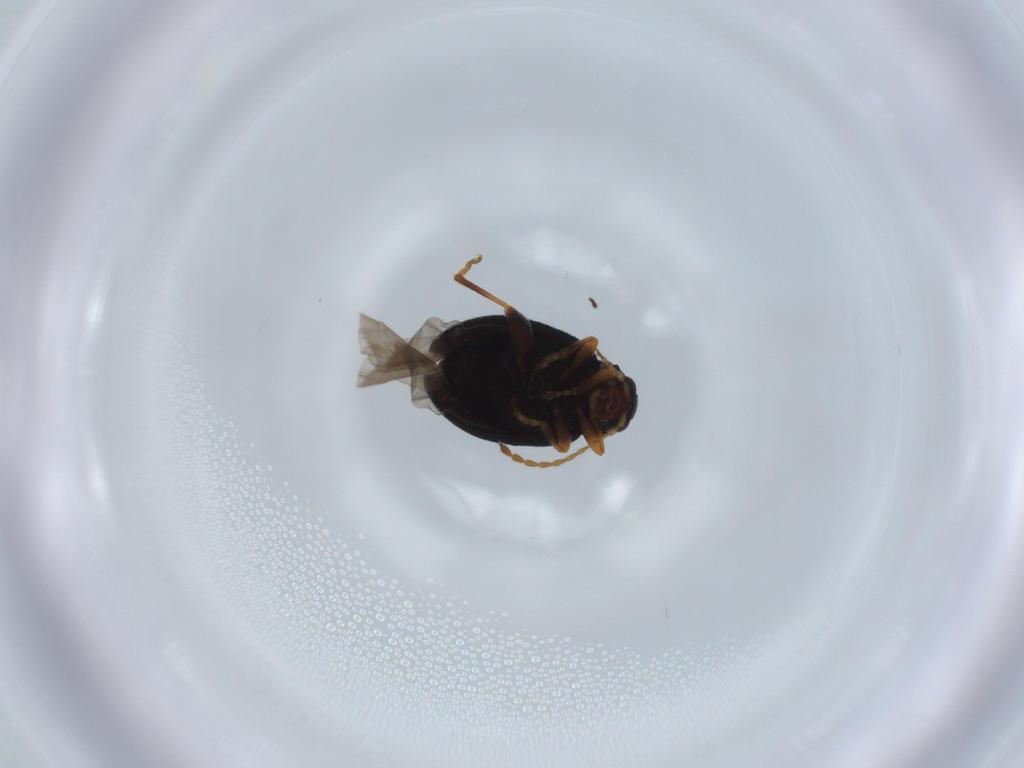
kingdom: Animalia
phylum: Arthropoda
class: Insecta
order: Coleoptera
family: Chrysomelidae
